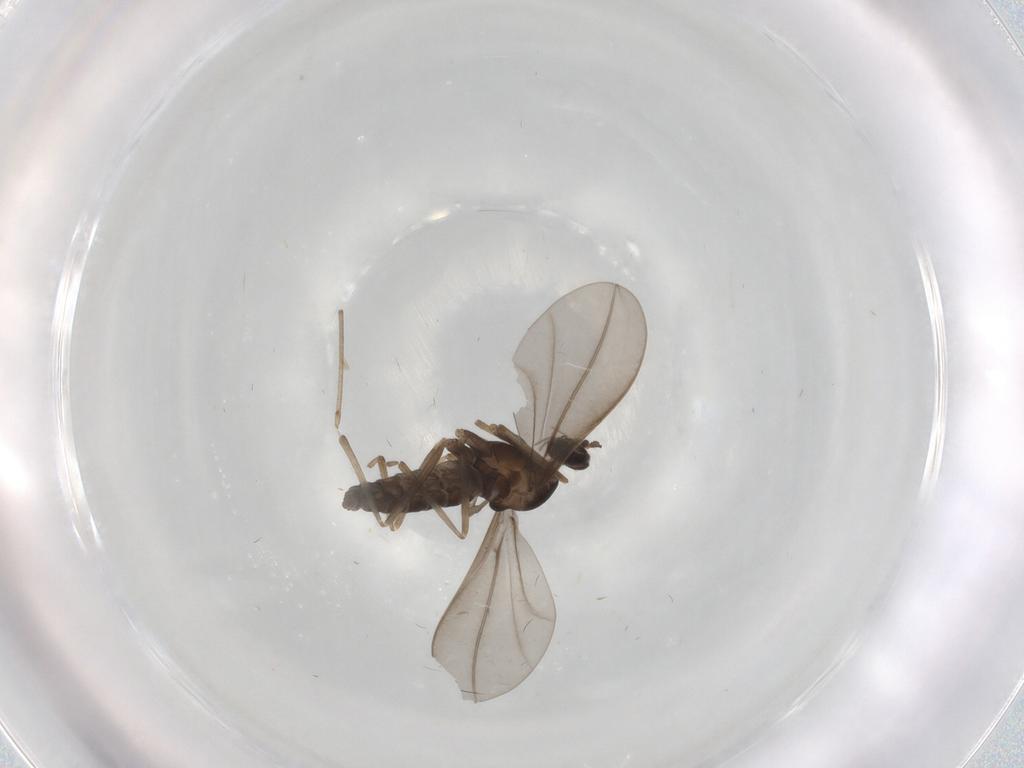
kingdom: Animalia
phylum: Arthropoda
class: Insecta
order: Diptera
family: Cecidomyiidae
